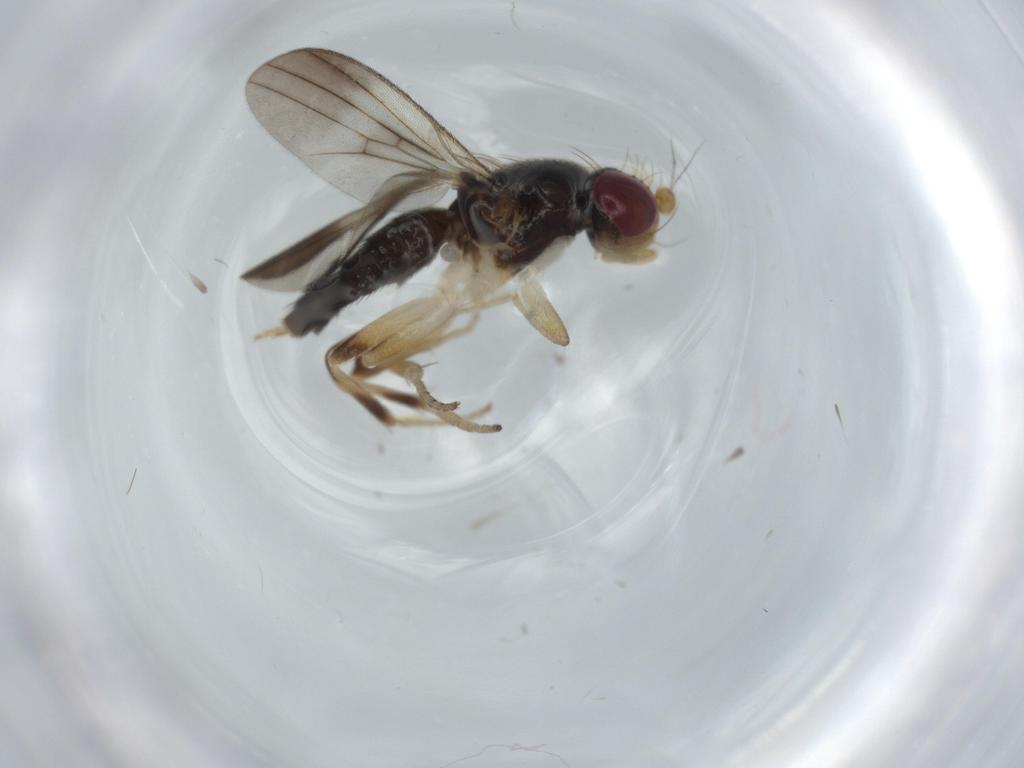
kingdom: Animalia
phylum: Arthropoda
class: Insecta
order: Diptera
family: Clusiidae
